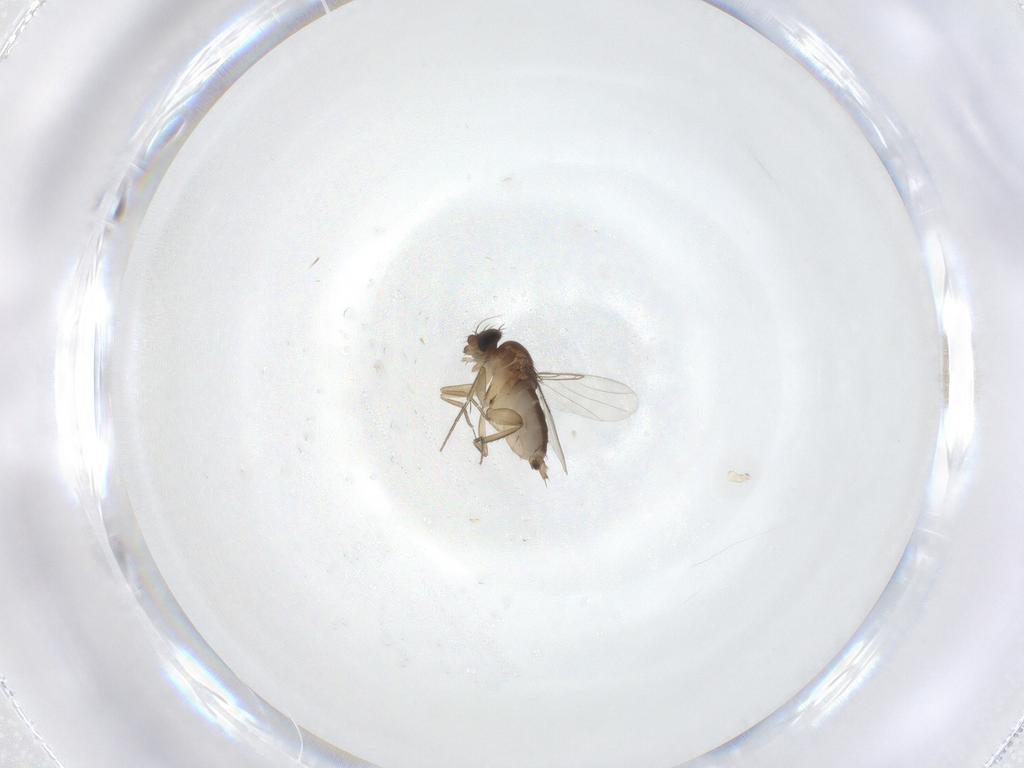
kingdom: Animalia
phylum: Arthropoda
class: Insecta
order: Diptera
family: Phoridae
